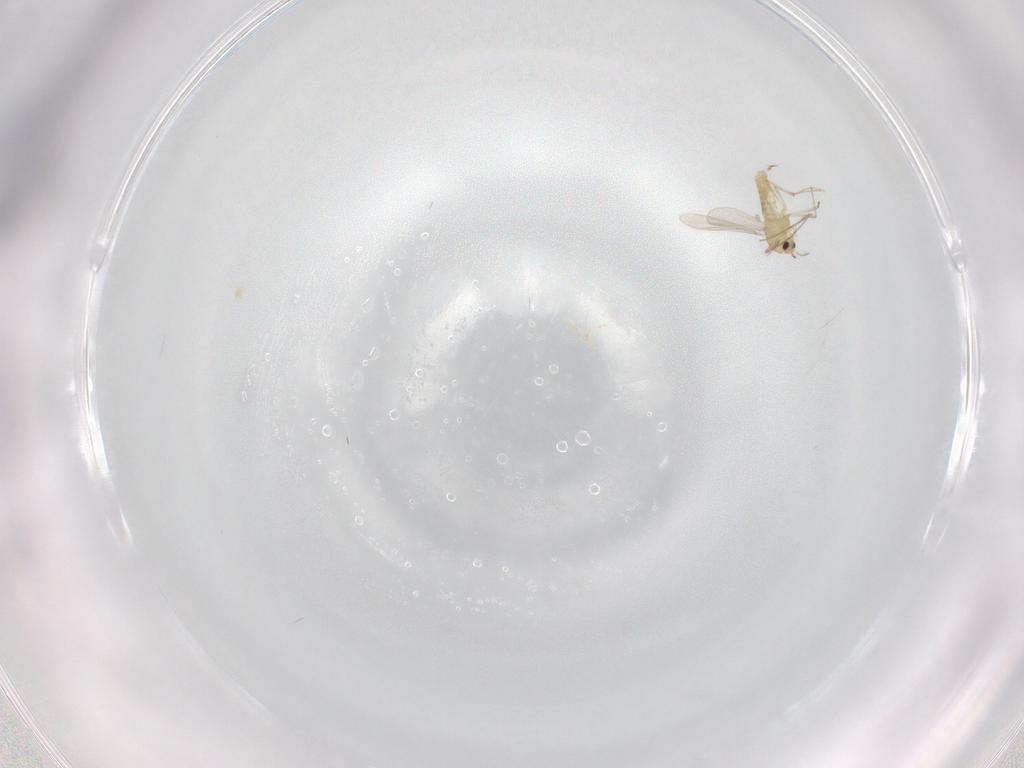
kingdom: Animalia
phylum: Arthropoda
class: Insecta
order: Diptera
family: Chironomidae
